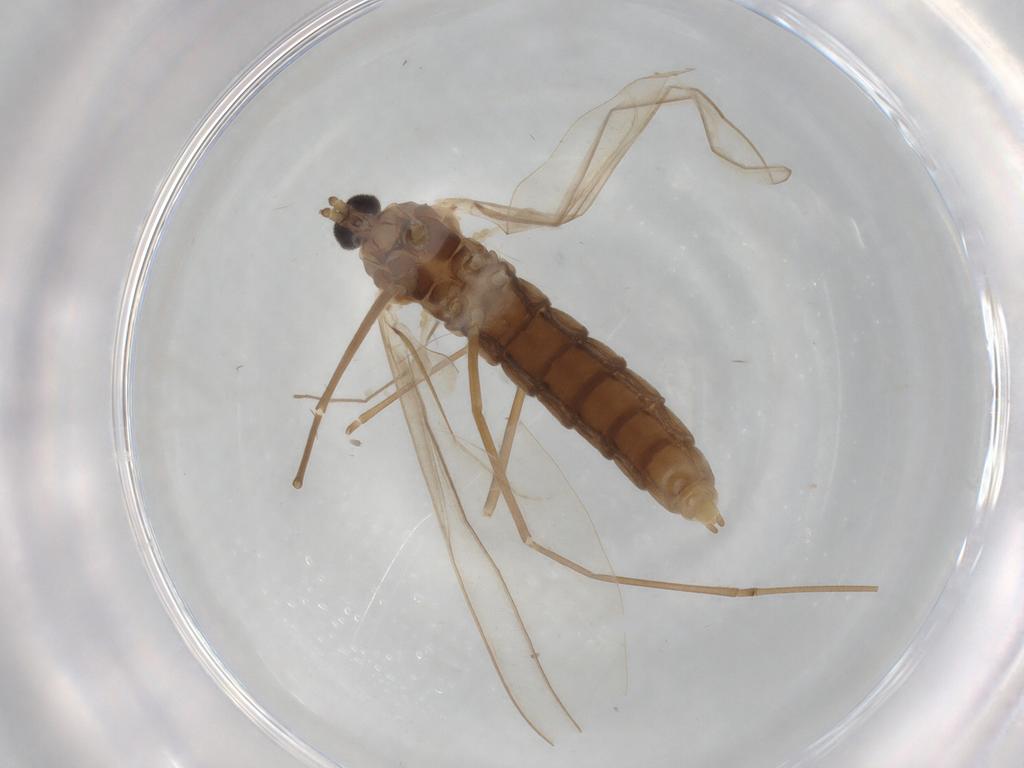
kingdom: Animalia
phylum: Arthropoda
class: Insecta
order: Diptera
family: Cecidomyiidae
